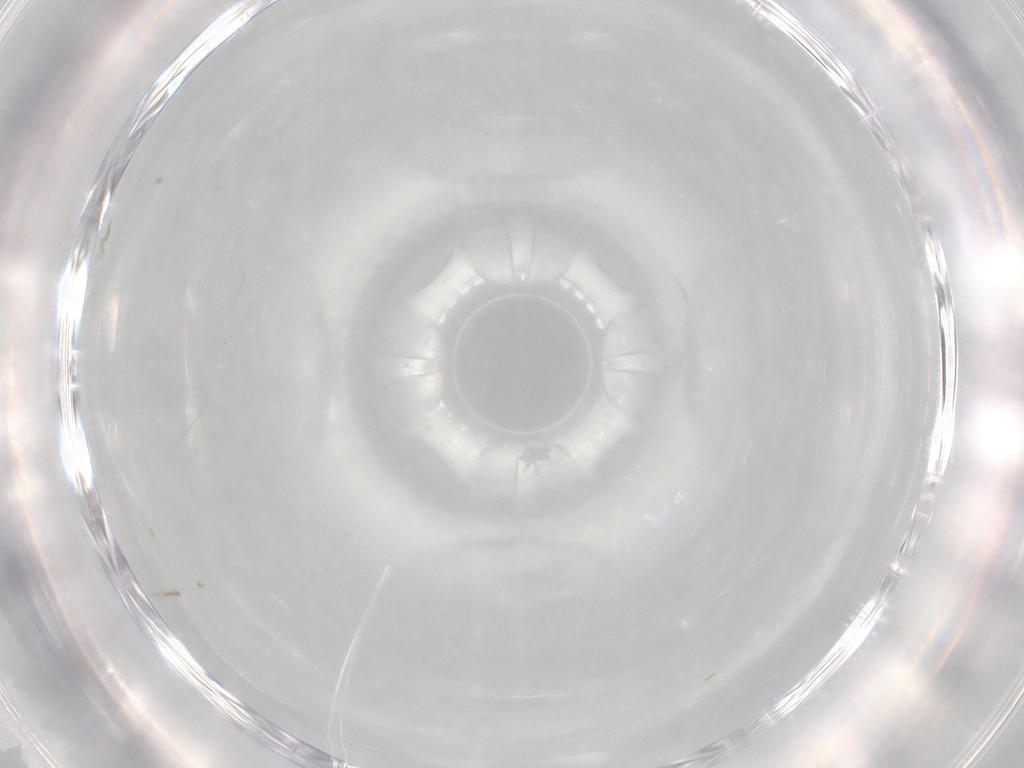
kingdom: Animalia
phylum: Arthropoda
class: Insecta
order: Hymenoptera
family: Scelionidae
